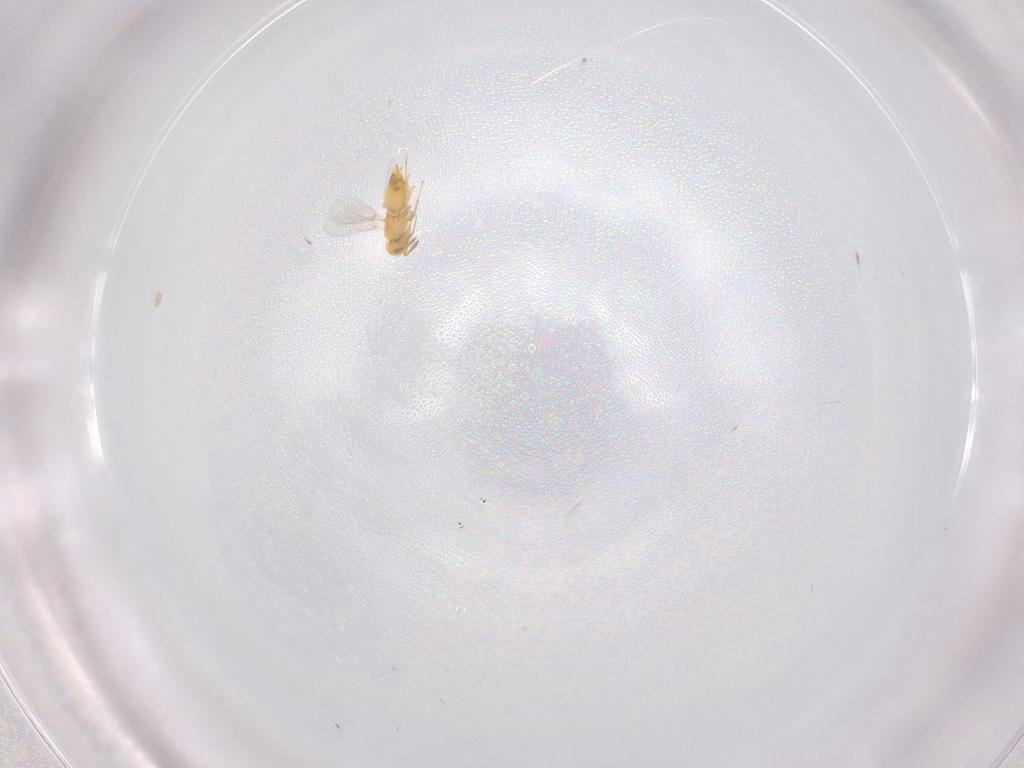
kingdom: Animalia
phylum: Arthropoda
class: Insecta
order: Hymenoptera
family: Aphelinidae
